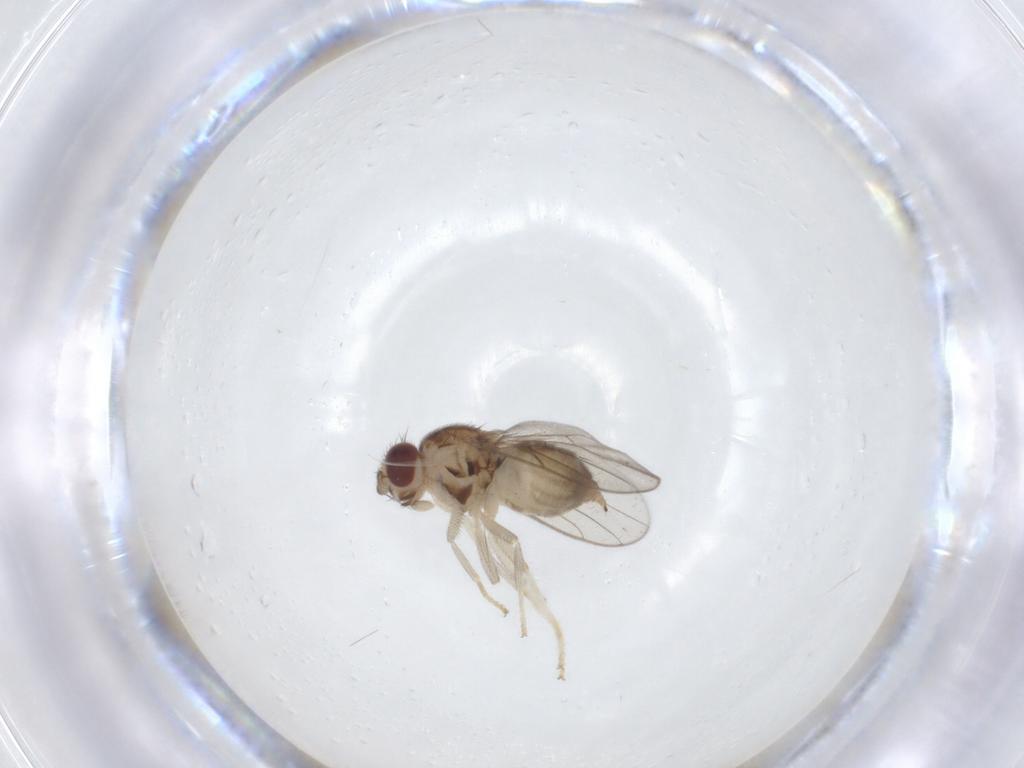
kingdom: Animalia
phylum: Arthropoda
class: Insecta
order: Diptera
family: Chloropidae
